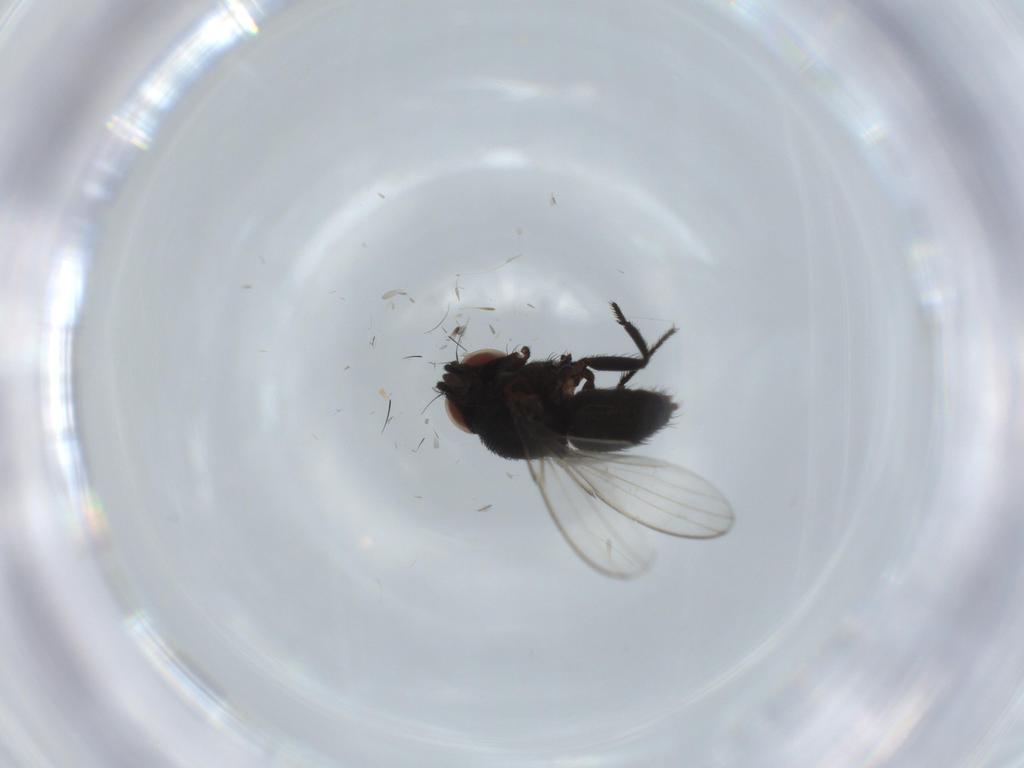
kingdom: Animalia
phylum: Arthropoda
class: Insecta
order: Diptera
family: Milichiidae
